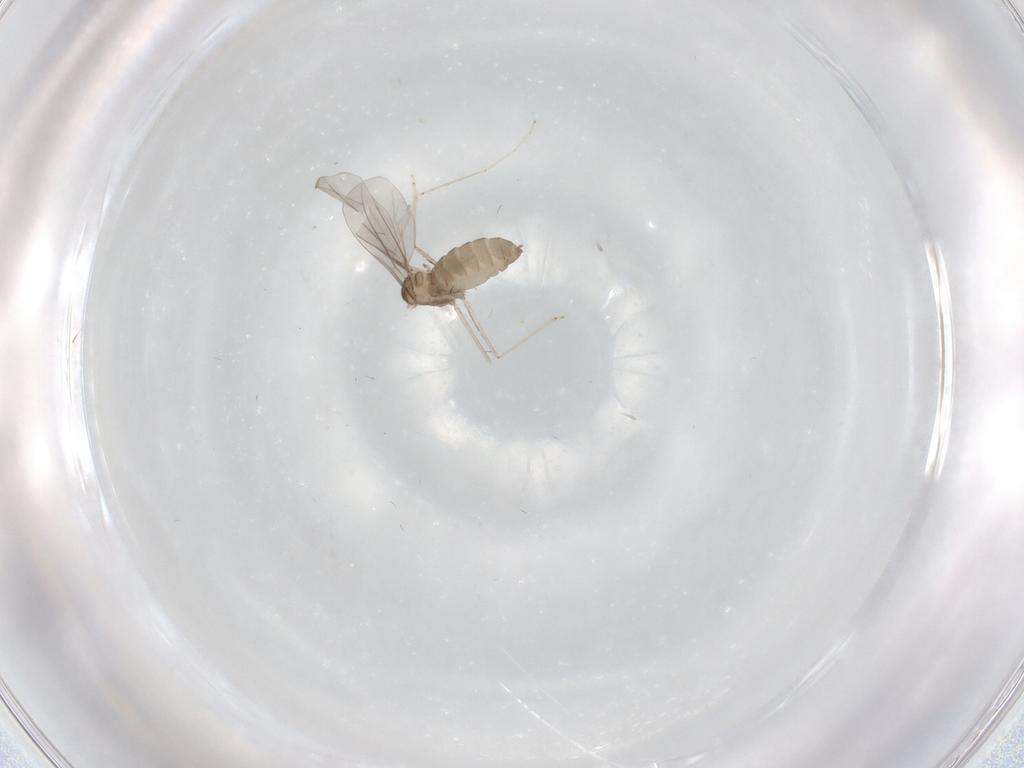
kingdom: Animalia
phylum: Arthropoda
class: Insecta
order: Diptera
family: Cecidomyiidae
